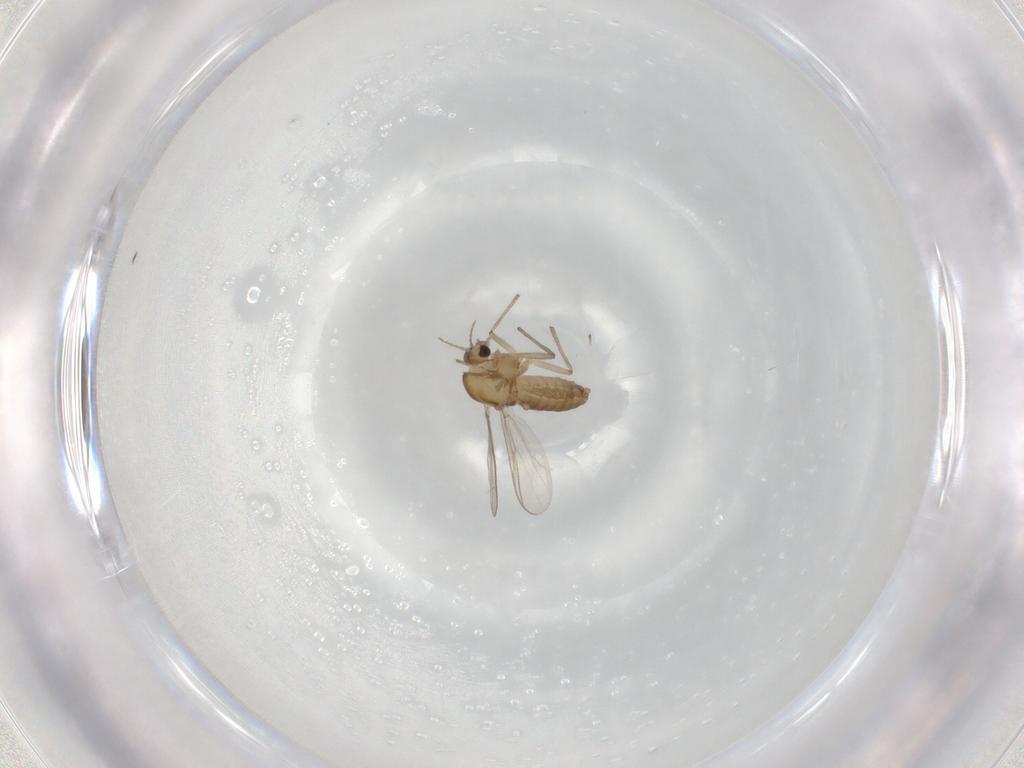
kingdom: Animalia
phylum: Arthropoda
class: Insecta
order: Diptera
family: Chironomidae
